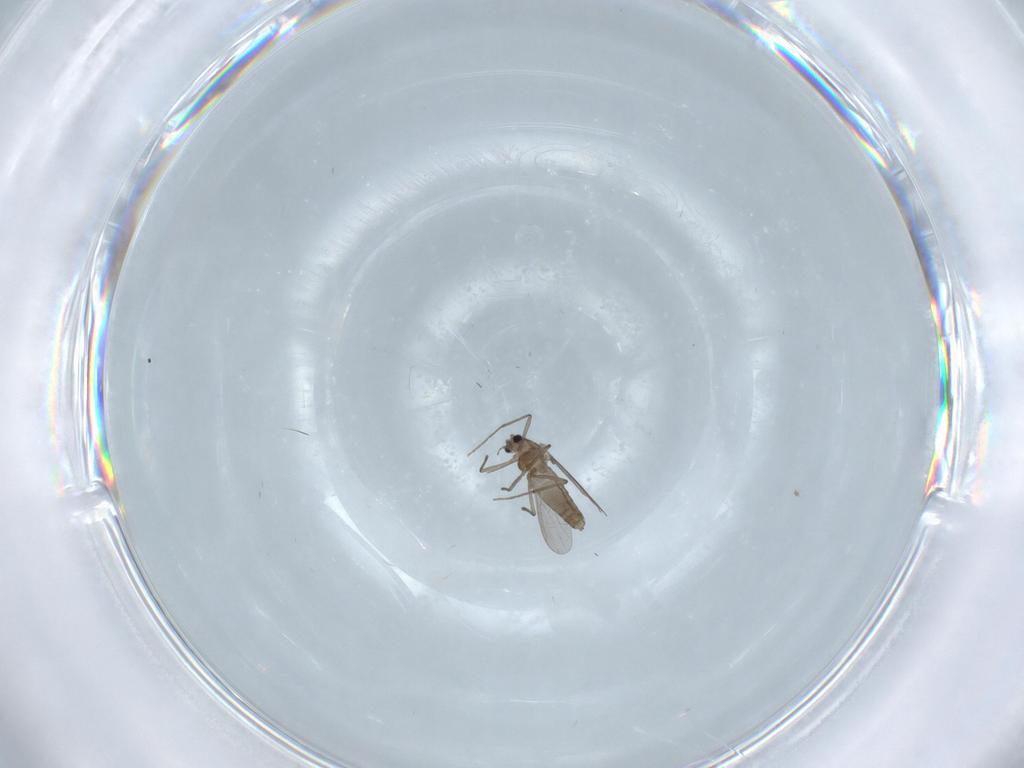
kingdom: Animalia
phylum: Arthropoda
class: Insecta
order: Diptera
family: Chironomidae
